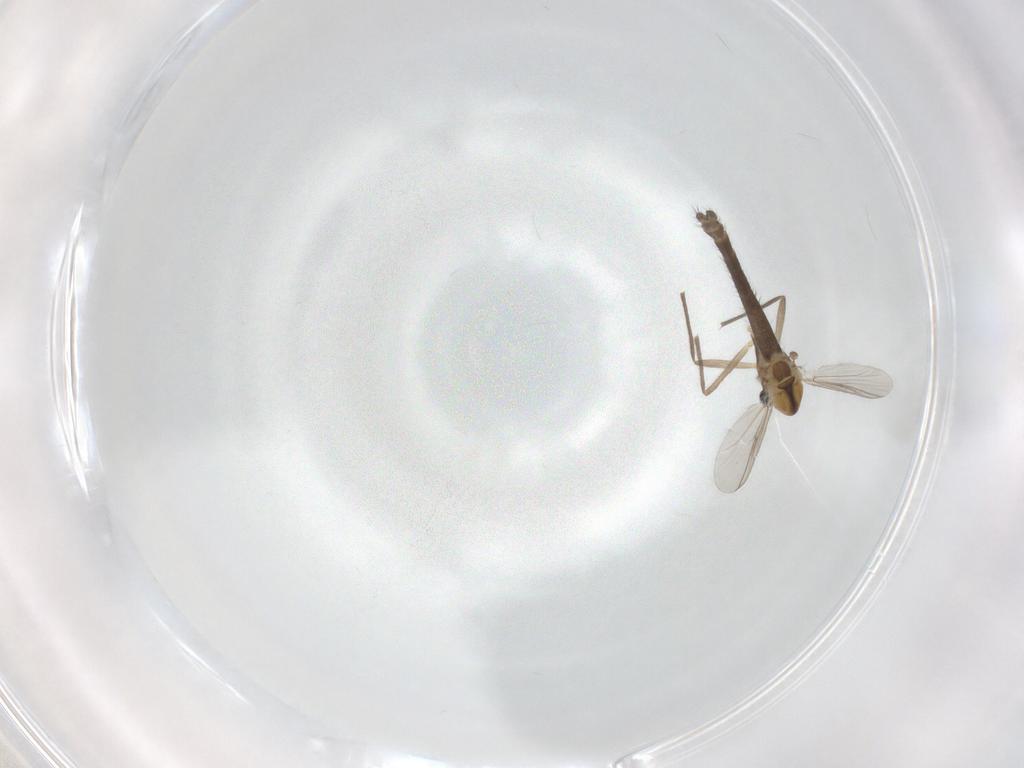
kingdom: Animalia
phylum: Arthropoda
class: Insecta
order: Diptera
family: Chironomidae
